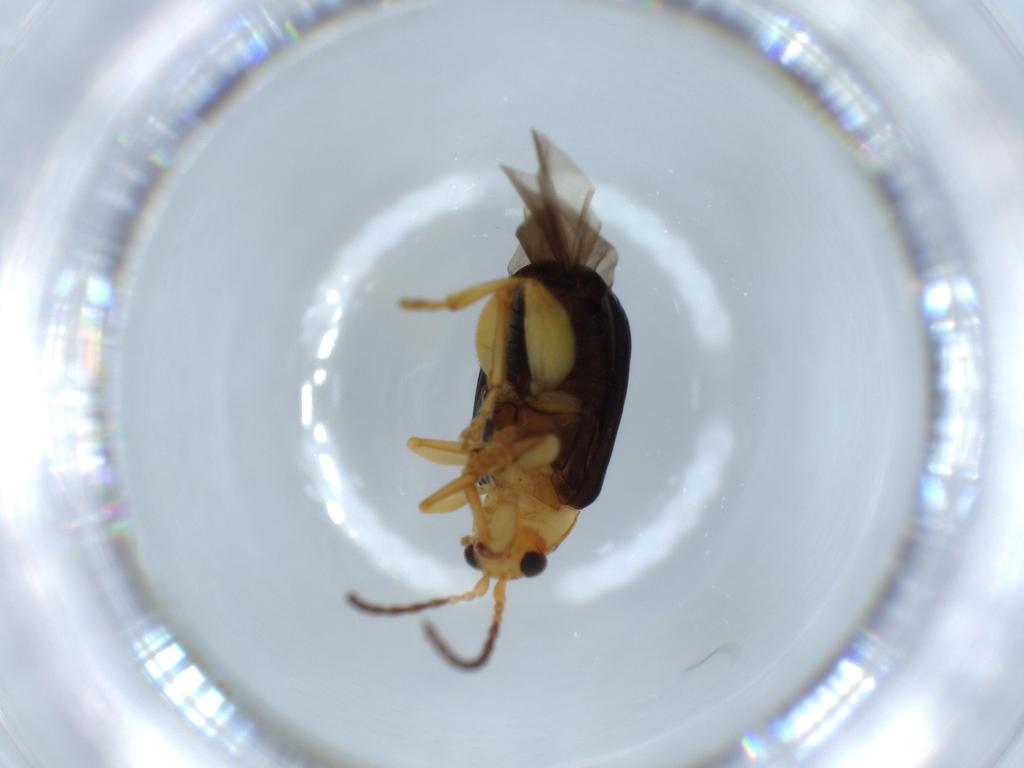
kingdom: Animalia
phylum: Arthropoda
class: Insecta
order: Coleoptera
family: Chrysomelidae
